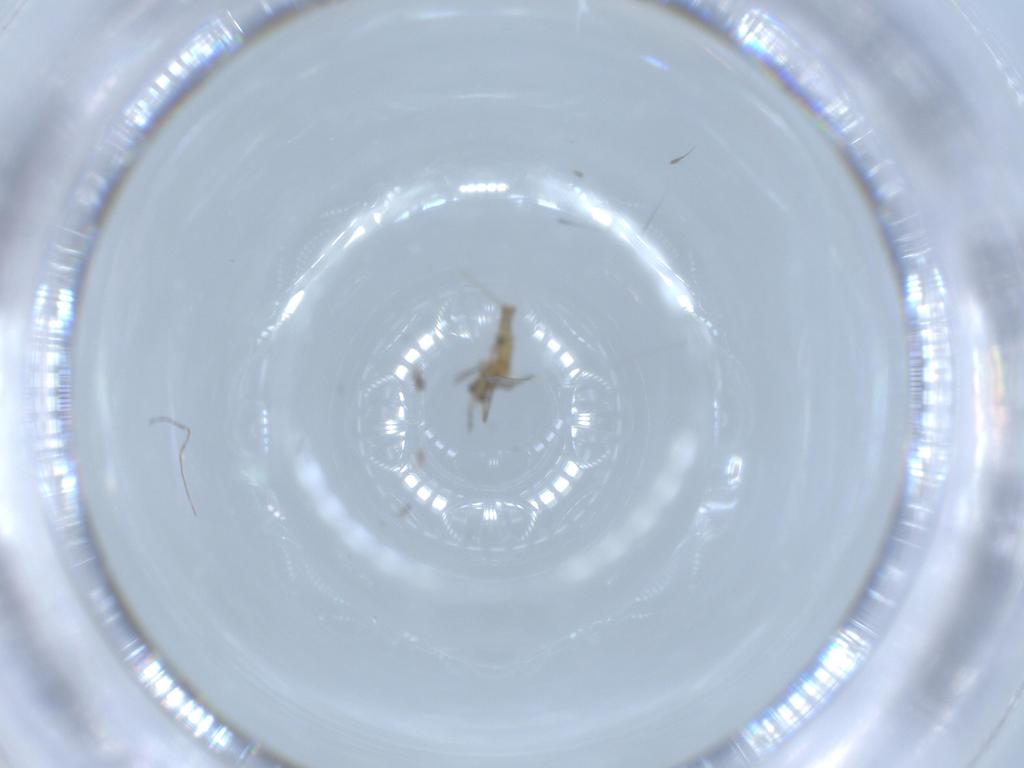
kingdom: Animalia
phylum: Arthropoda
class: Insecta
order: Diptera
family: Cecidomyiidae
